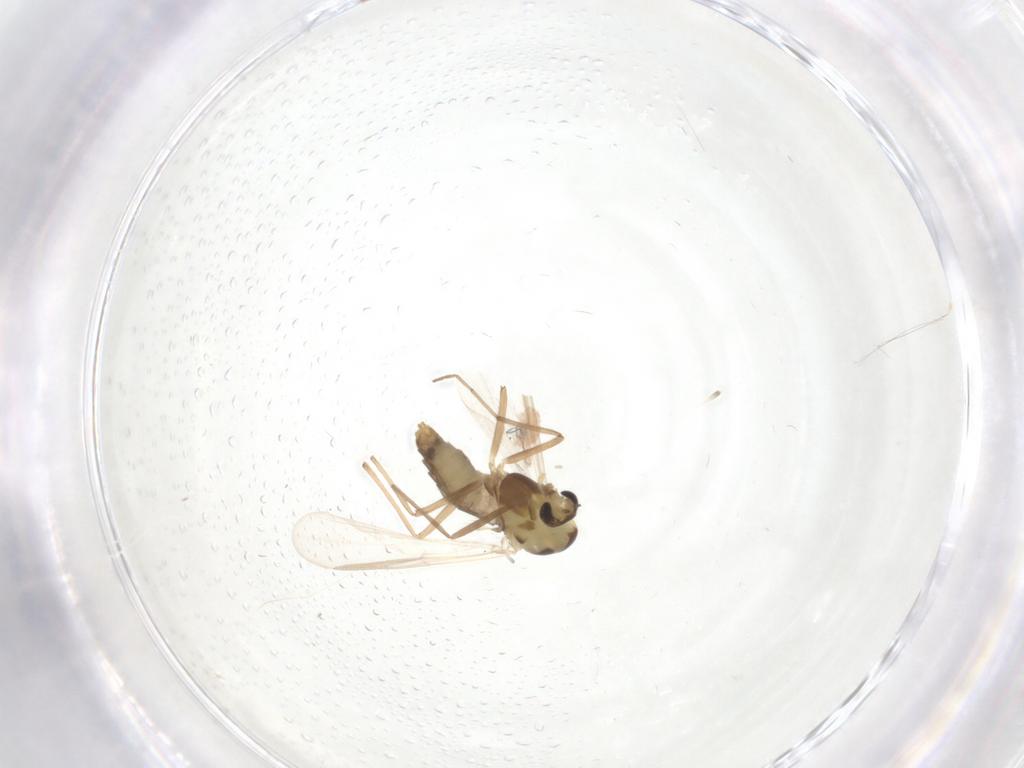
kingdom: Animalia
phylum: Arthropoda
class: Insecta
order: Diptera
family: Chironomidae
